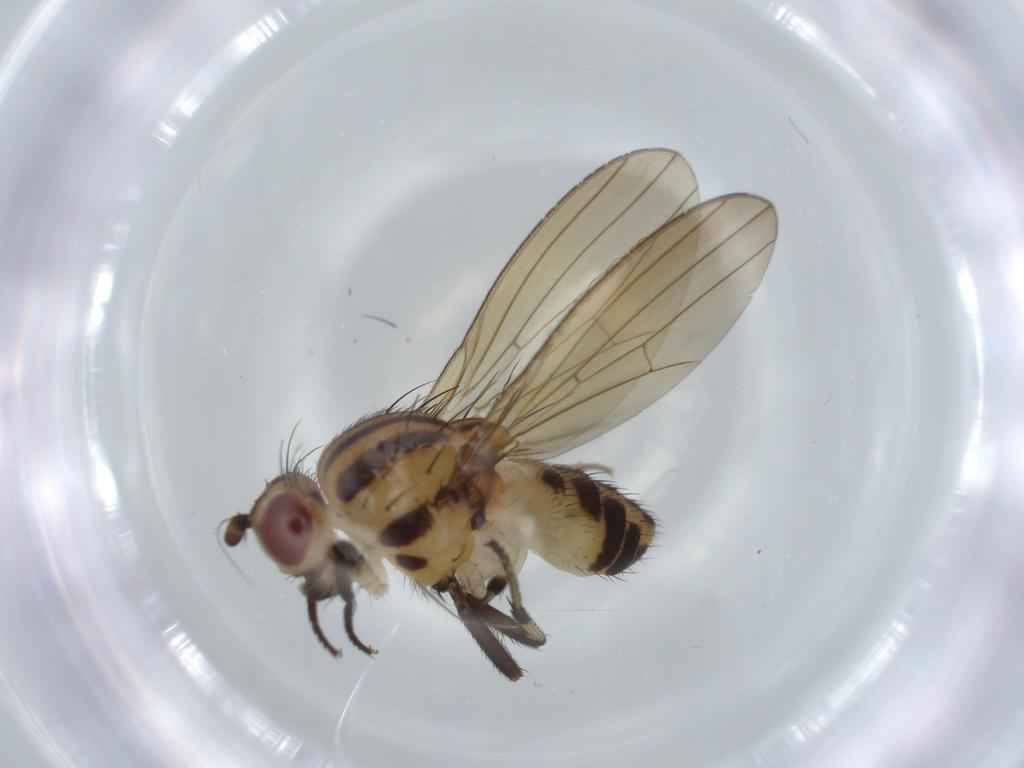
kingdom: Animalia
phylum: Arthropoda
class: Insecta
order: Diptera
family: Lauxaniidae
